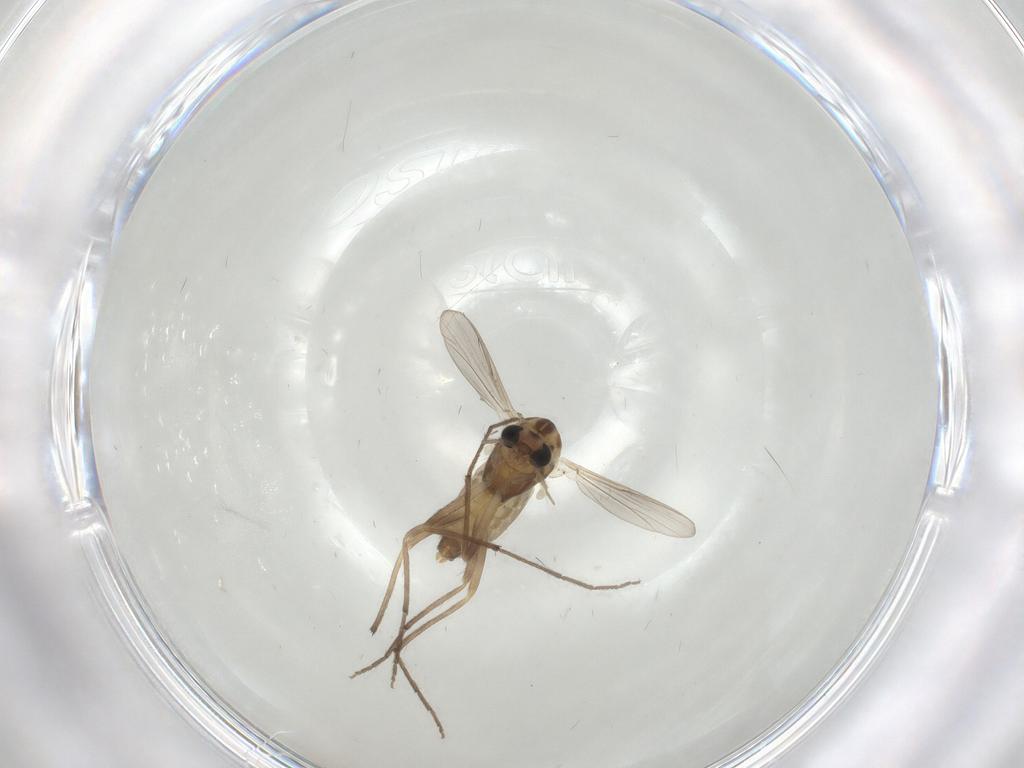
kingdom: Animalia
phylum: Arthropoda
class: Insecta
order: Diptera
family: Chironomidae
